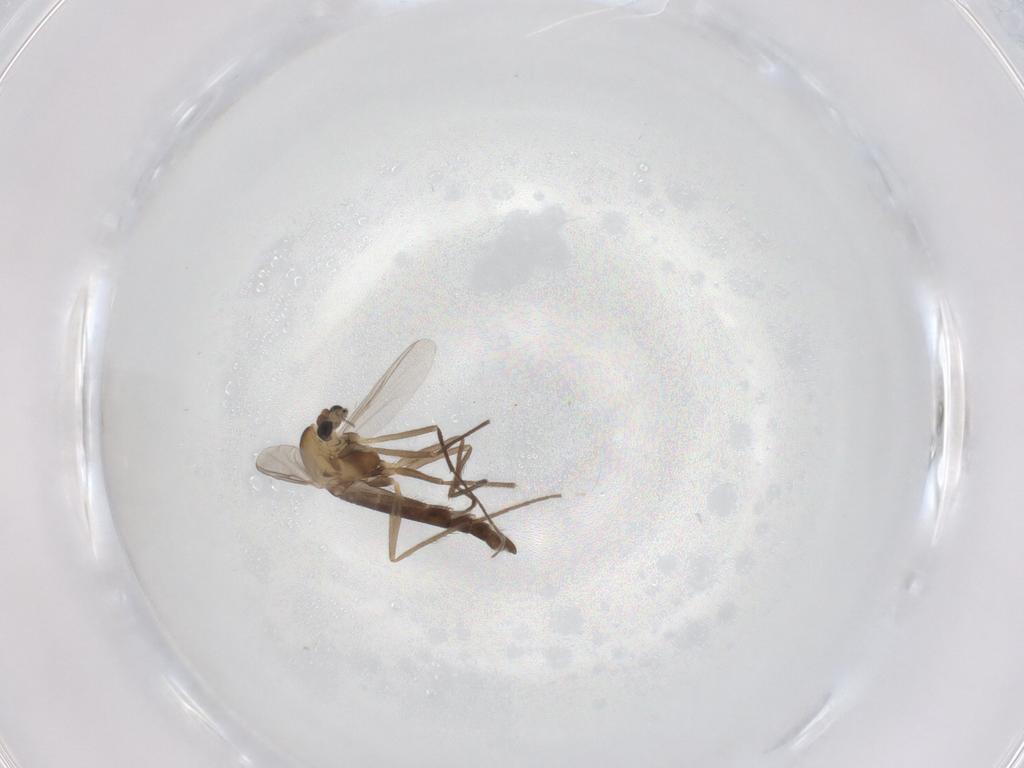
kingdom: Animalia
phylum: Arthropoda
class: Insecta
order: Diptera
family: Chironomidae
